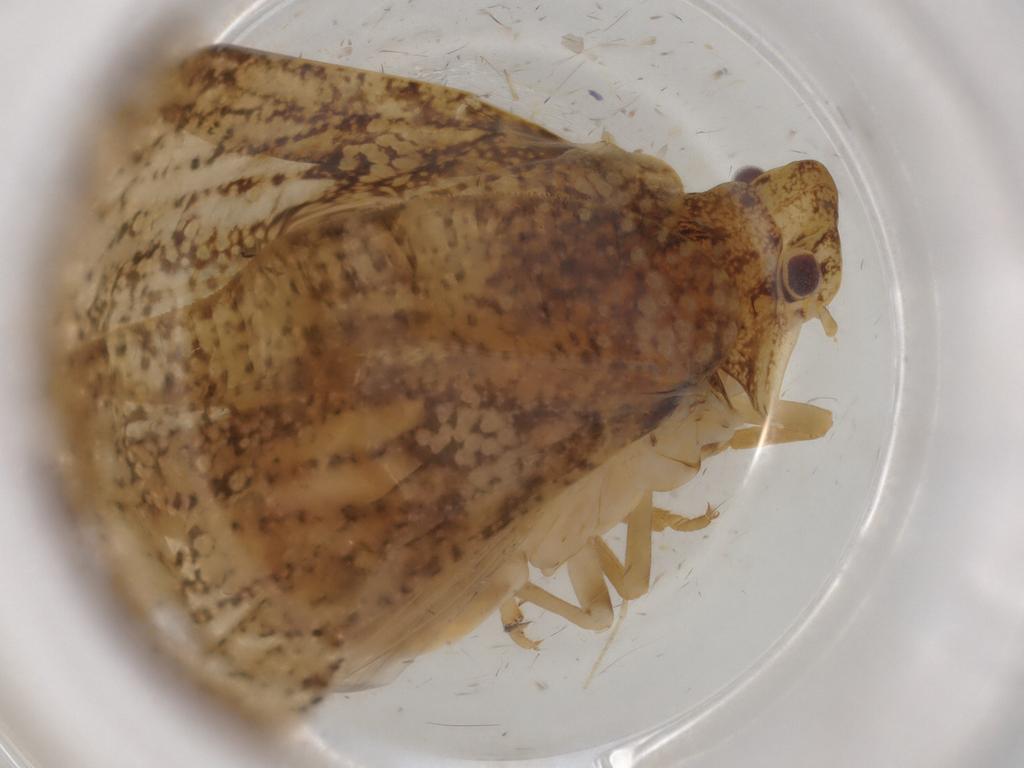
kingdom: Animalia
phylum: Arthropoda
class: Insecta
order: Hemiptera
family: Flatidae
